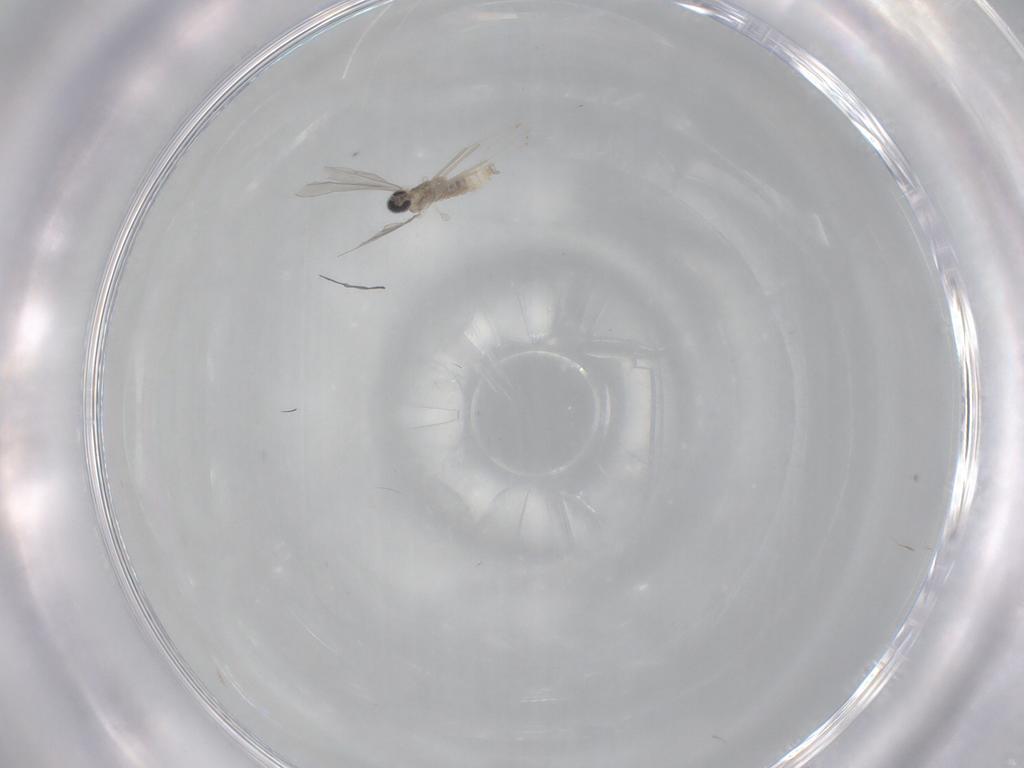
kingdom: Animalia
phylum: Arthropoda
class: Insecta
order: Diptera
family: Cecidomyiidae
